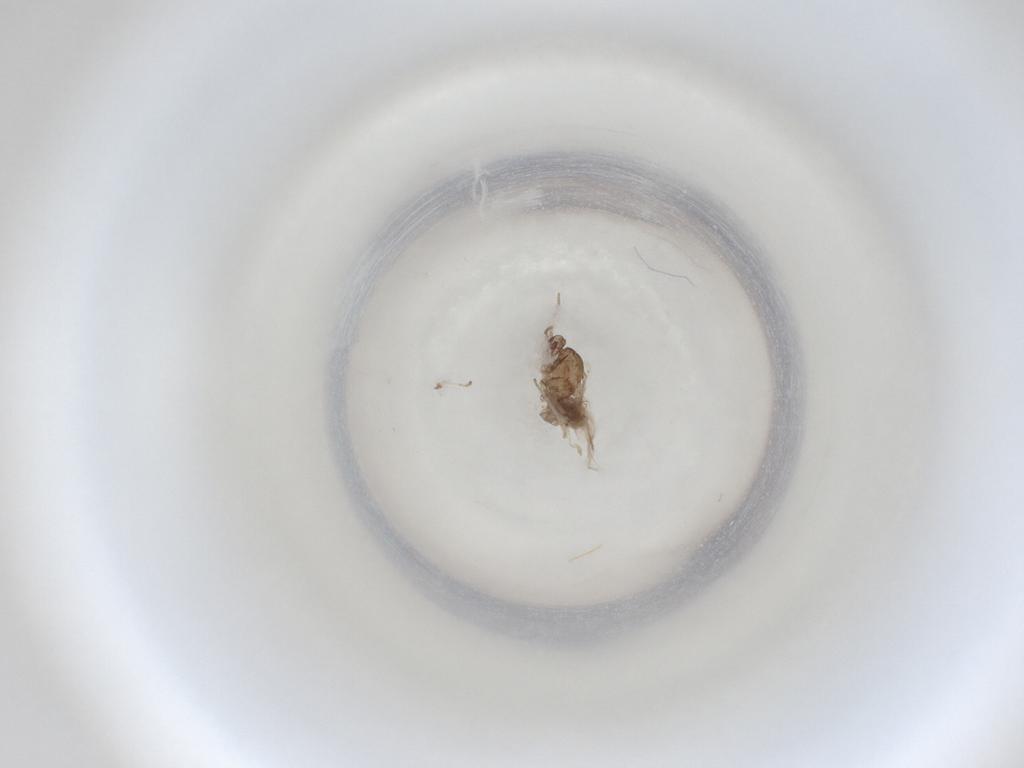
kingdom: Animalia
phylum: Arthropoda
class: Insecta
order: Diptera
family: Cecidomyiidae
